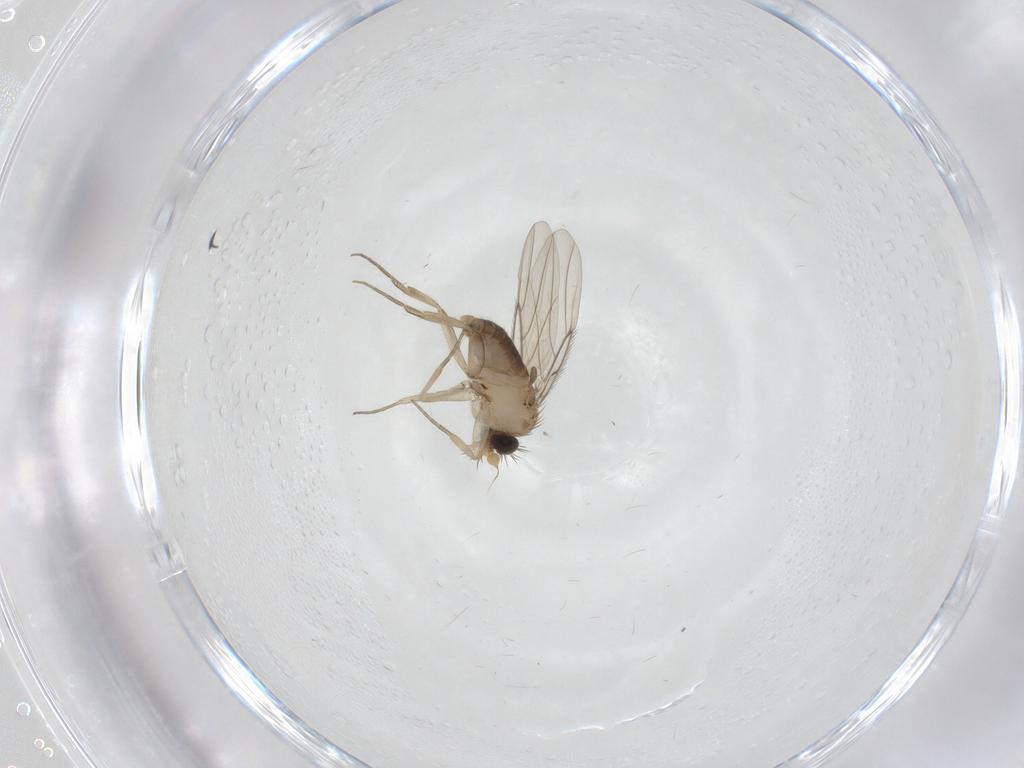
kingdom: Animalia
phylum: Arthropoda
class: Insecta
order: Diptera
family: Phoridae
